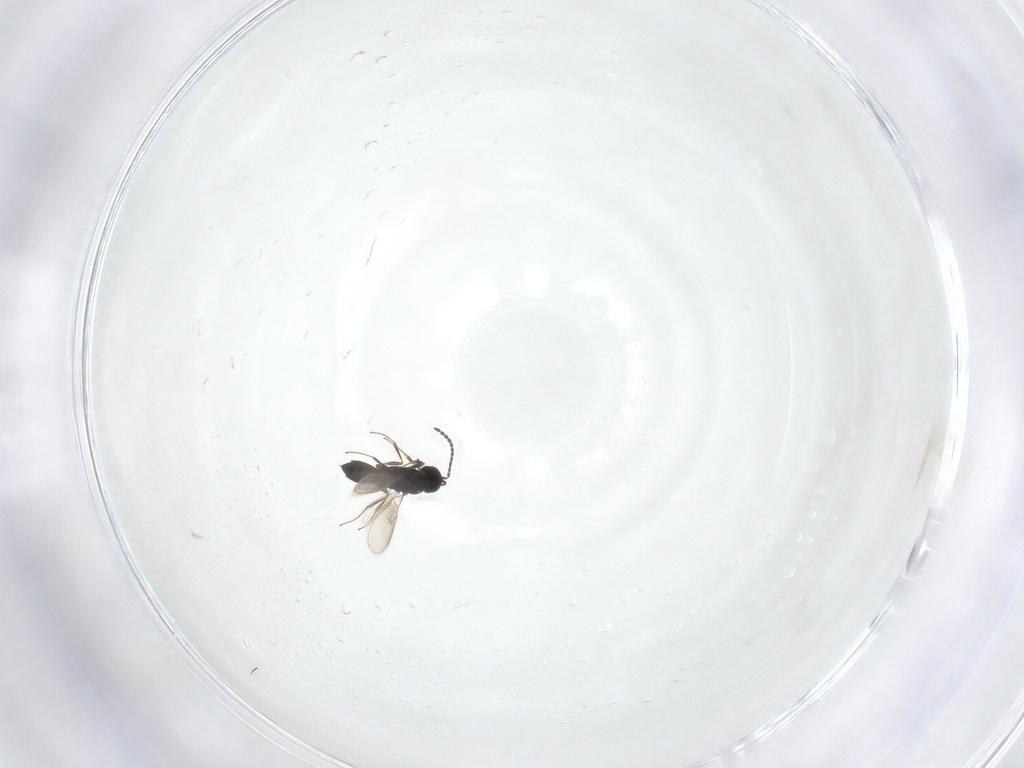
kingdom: Animalia
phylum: Arthropoda
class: Insecta
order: Hymenoptera
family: Scelionidae
